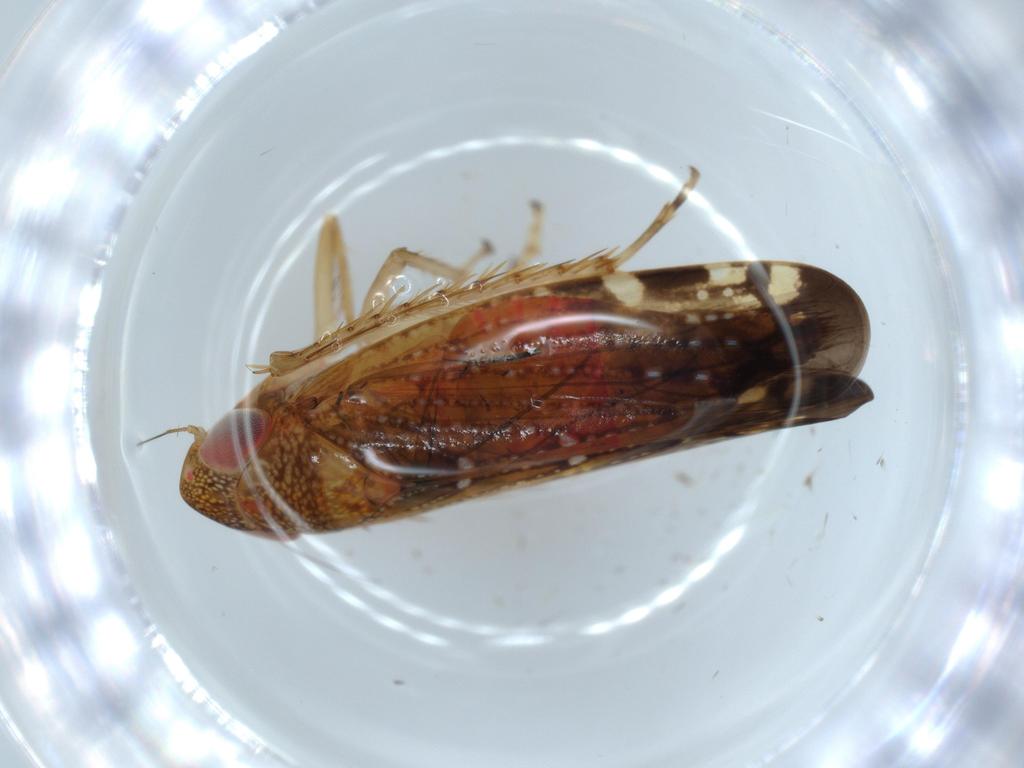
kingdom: Animalia
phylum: Arthropoda
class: Insecta
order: Hemiptera
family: Cicadellidae
